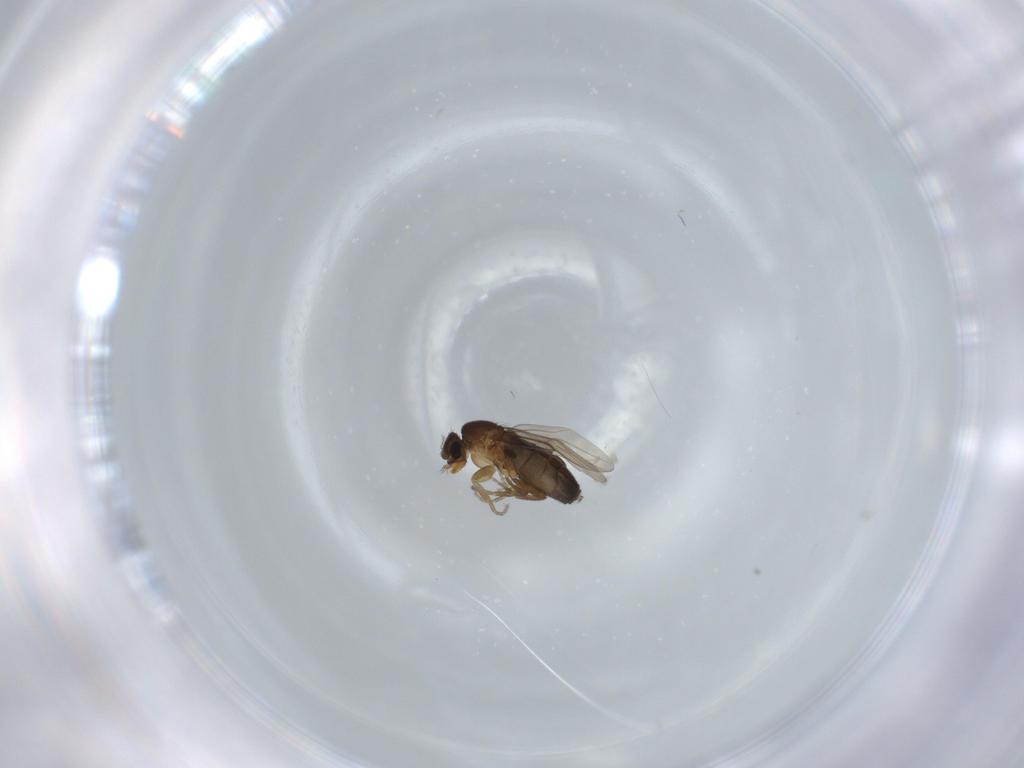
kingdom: Animalia
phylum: Arthropoda
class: Insecta
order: Diptera
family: Phoridae
